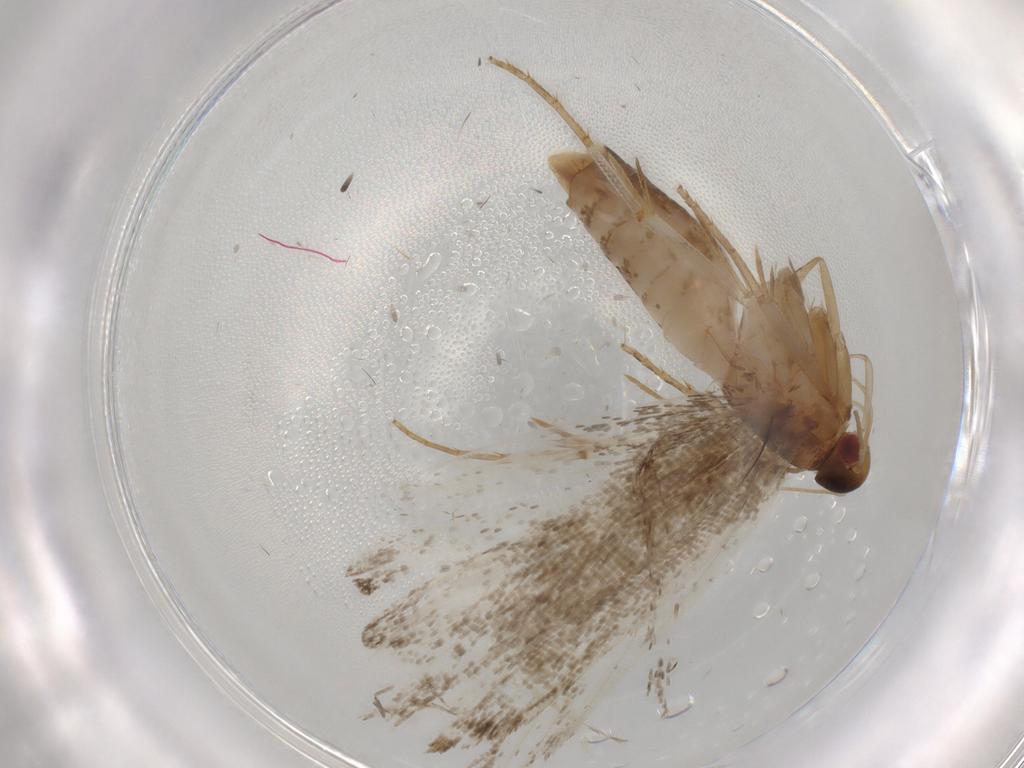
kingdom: Animalia
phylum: Arthropoda
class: Insecta
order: Lepidoptera
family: Gelechiidae
